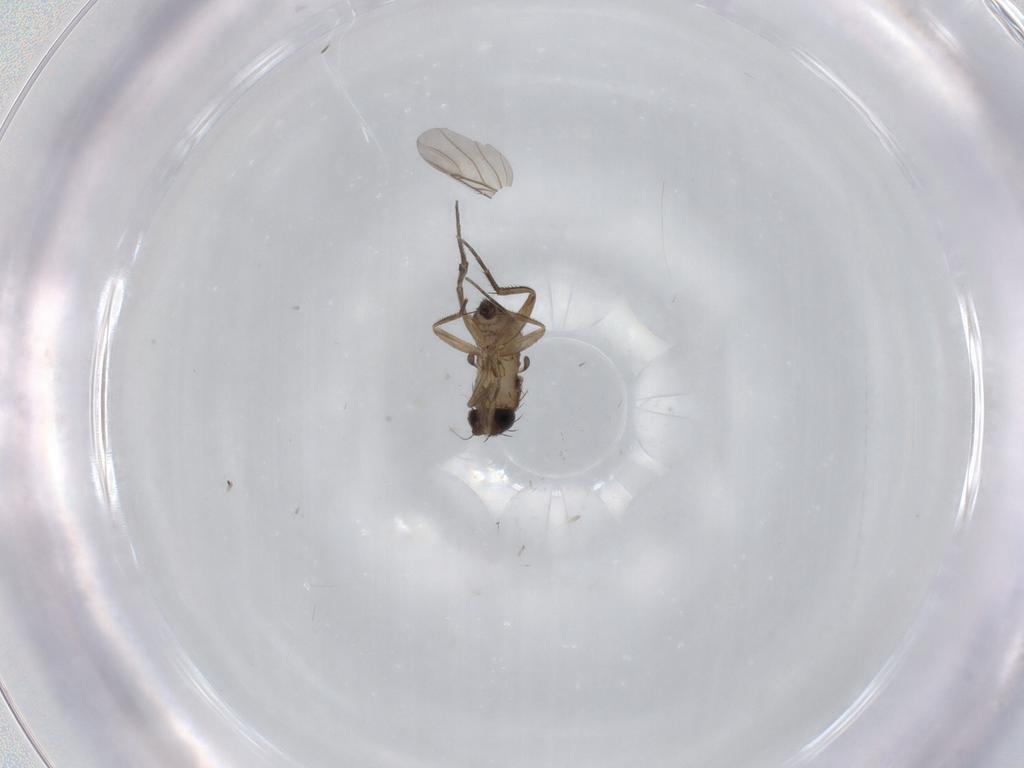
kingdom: Animalia
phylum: Arthropoda
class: Insecta
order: Diptera
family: Phoridae
